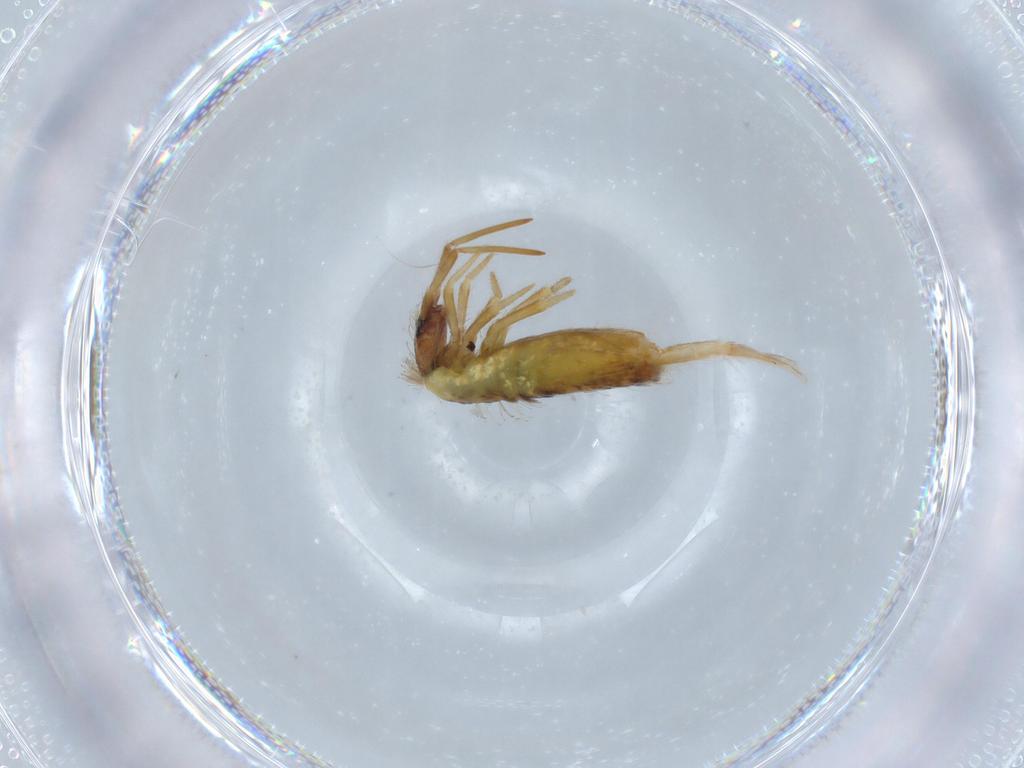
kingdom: Animalia
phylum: Arthropoda
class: Collembola
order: Entomobryomorpha
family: Entomobryidae
